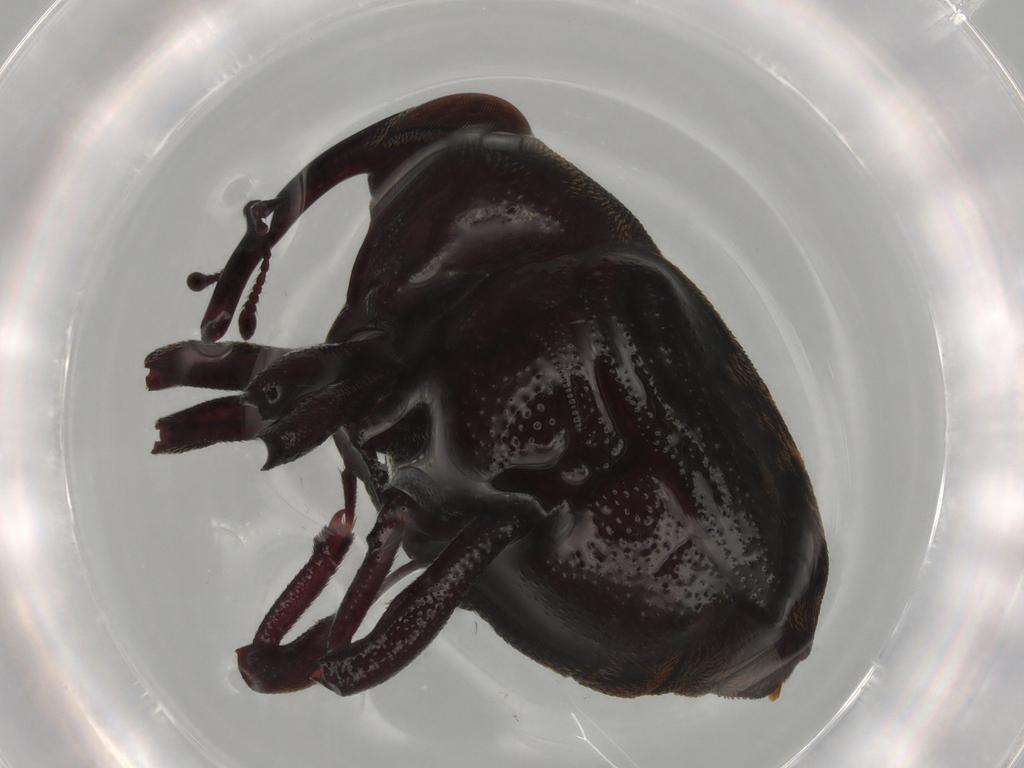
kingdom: Animalia
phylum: Arthropoda
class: Insecta
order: Coleoptera
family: Curculionidae
